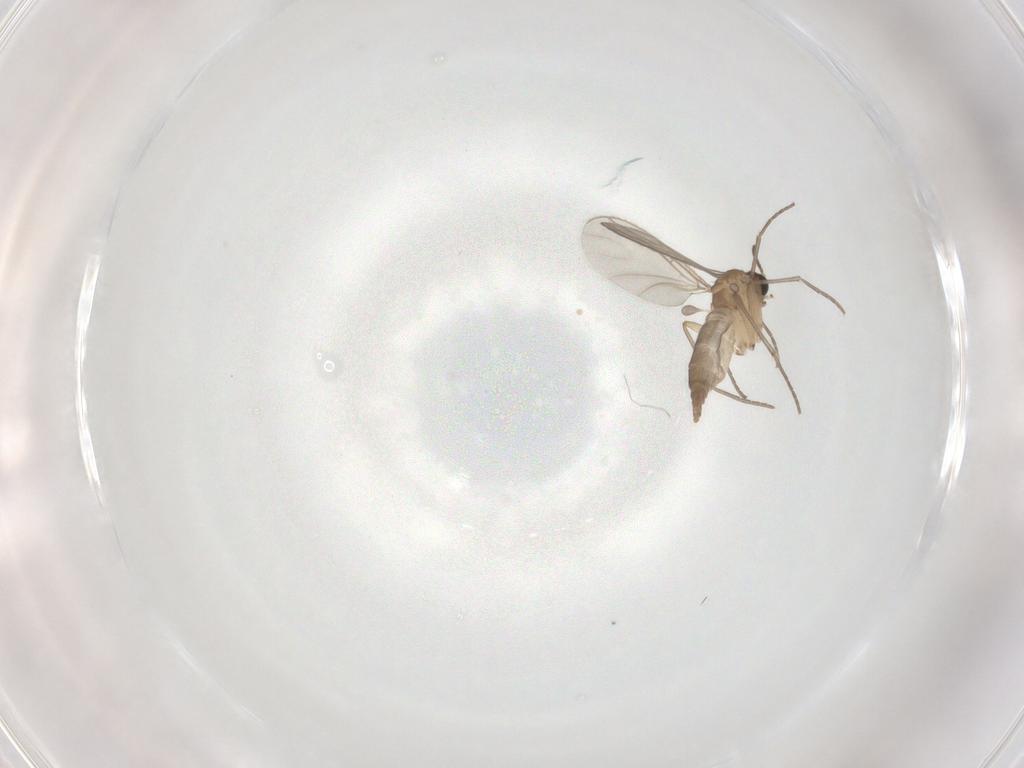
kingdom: Animalia
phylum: Arthropoda
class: Insecta
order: Diptera
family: Sciaridae
